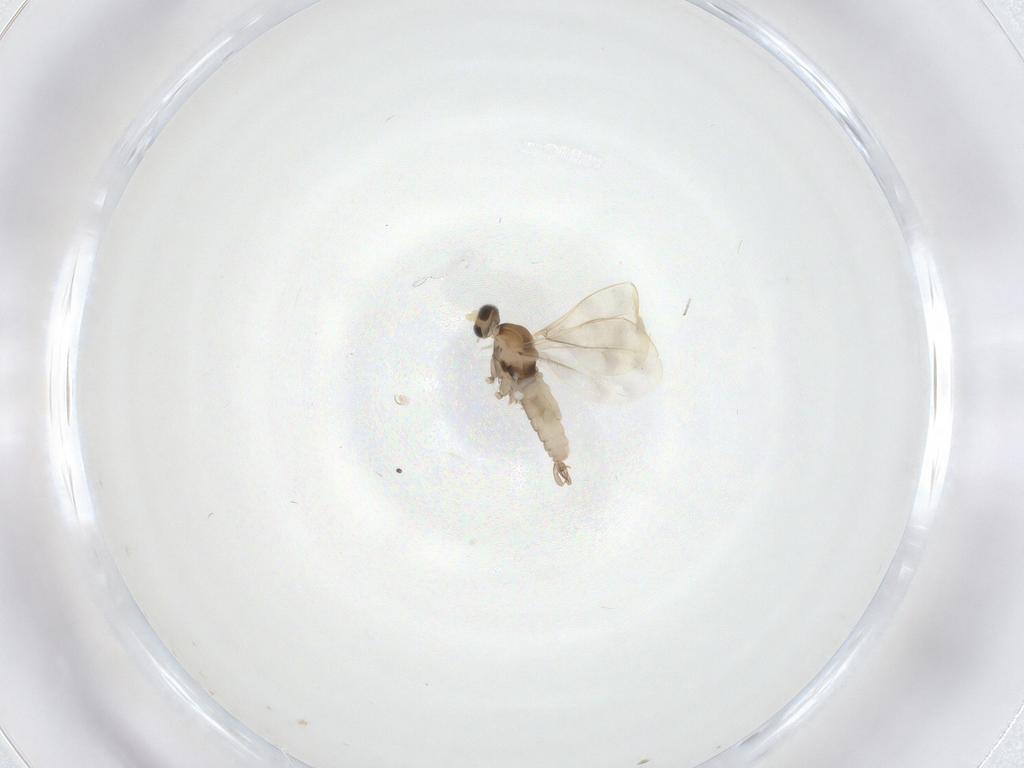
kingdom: Animalia
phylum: Arthropoda
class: Insecta
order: Diptera
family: Cecidomyiidae
